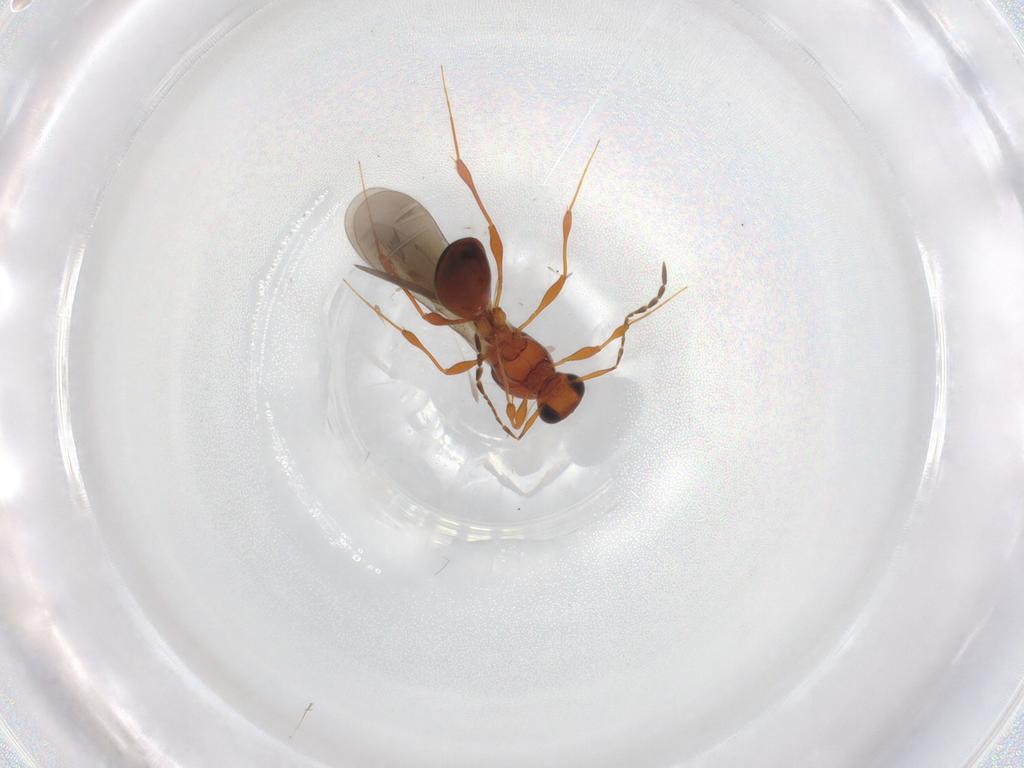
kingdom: Animalia
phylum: Arthropoda
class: Insecta
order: Hymenoptera
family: Platygastridae
